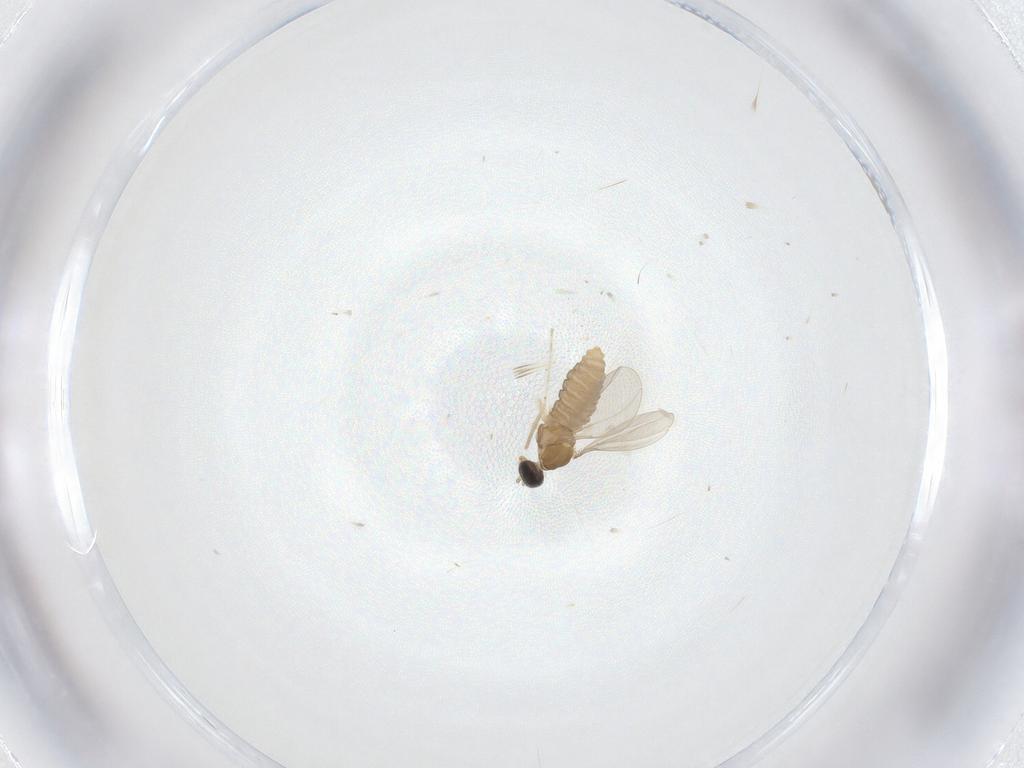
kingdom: Animalia
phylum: Arthropoda
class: Insecta
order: Diptera
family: Cecidomyiidae
